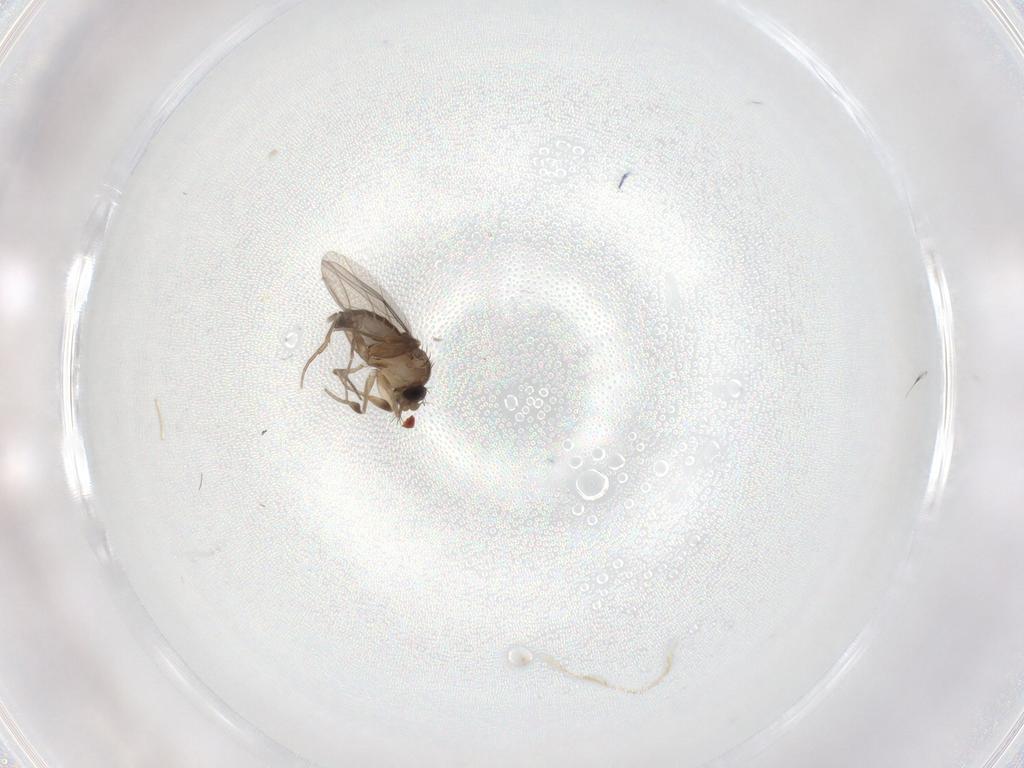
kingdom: Animalia
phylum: Arthropoda
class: Insecta
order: Diptera
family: Phoridae
